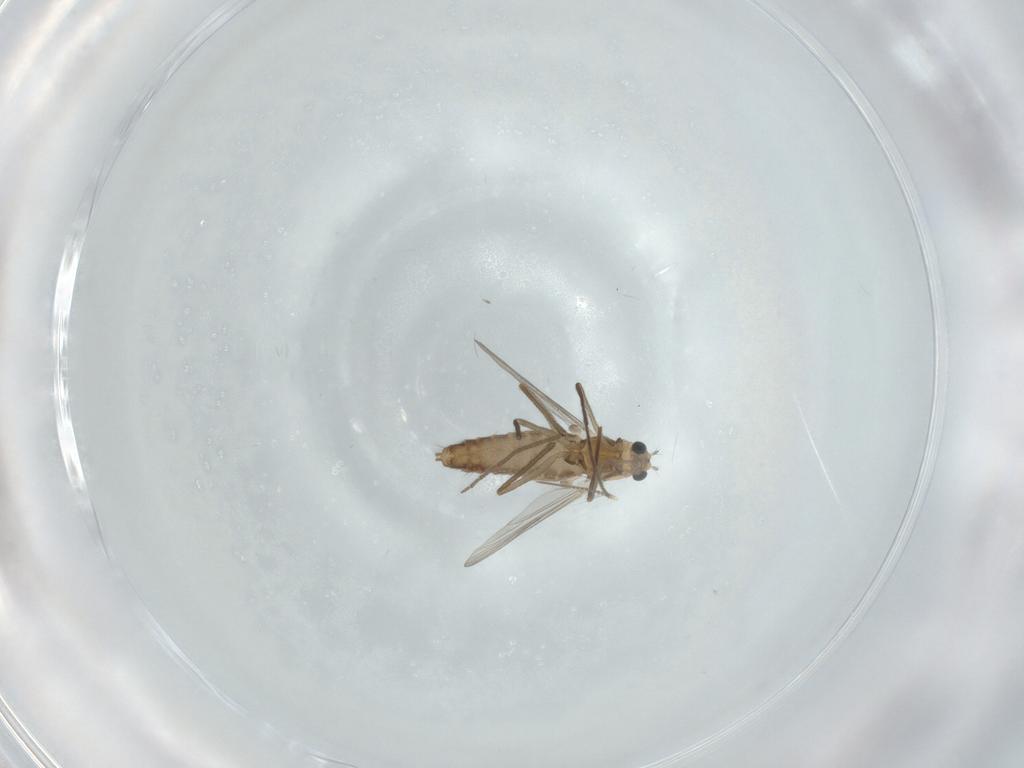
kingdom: Animalia
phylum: Arthropoda
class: Insecta
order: Diptera
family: Chironomidae
